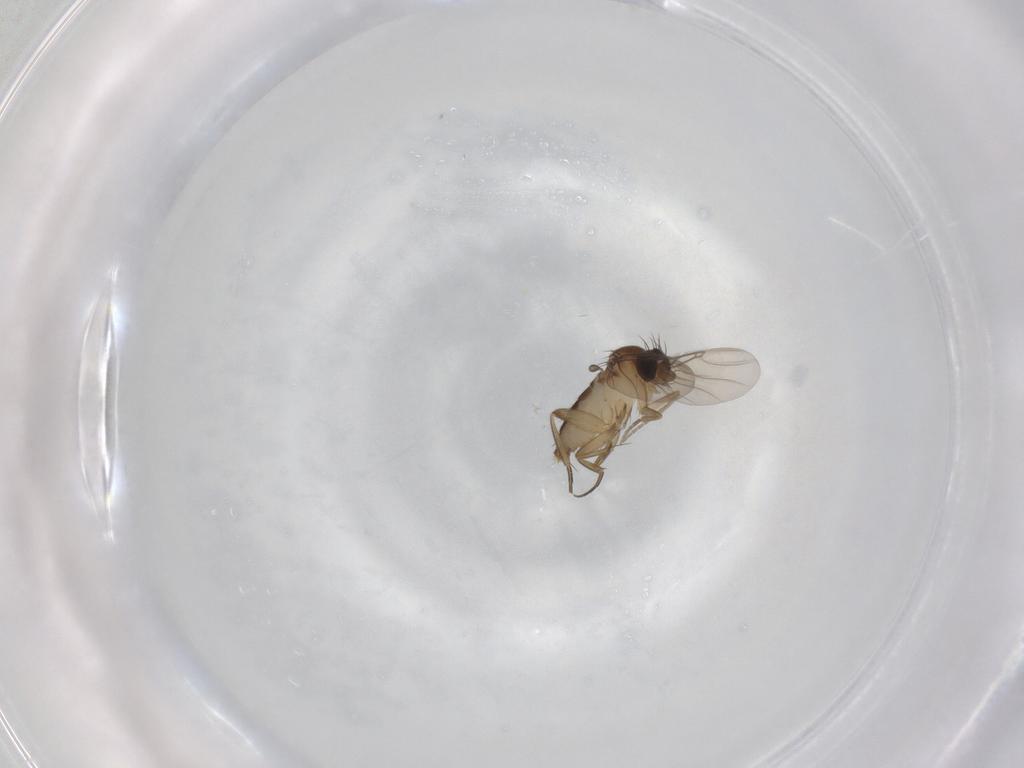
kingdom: Animalia
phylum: Arthropoda
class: Insecta
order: Diptera
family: Phoridae
